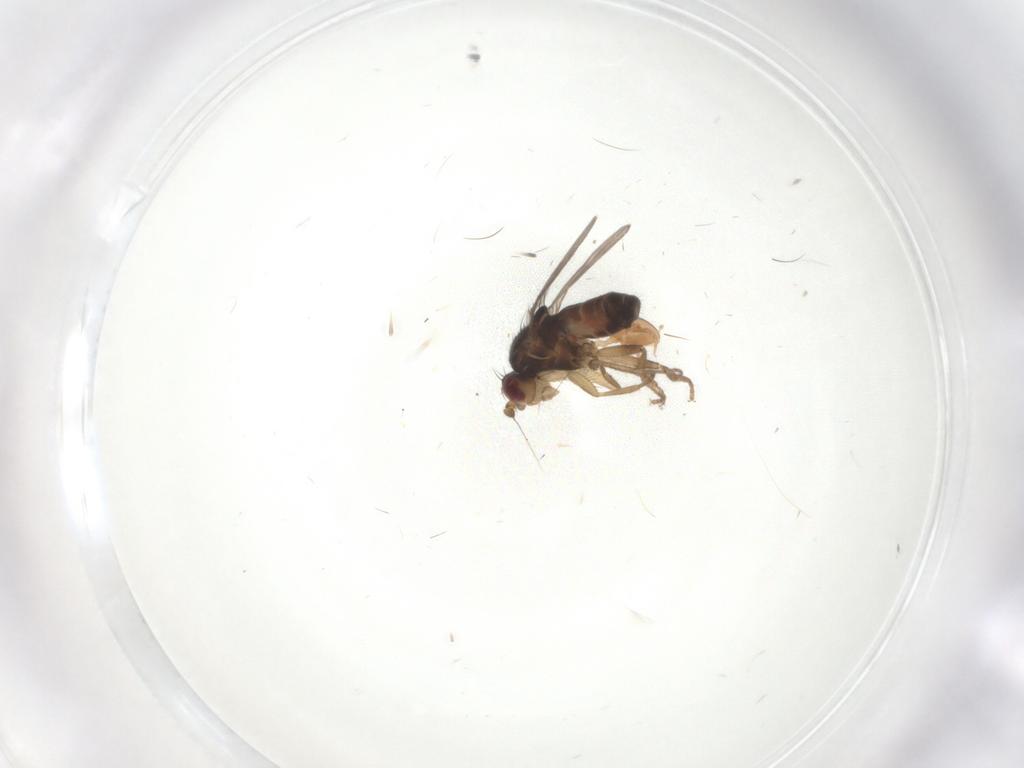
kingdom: Animalia
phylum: Arthropoda
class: Insecta
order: Diptera
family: Sphaeroceridae
